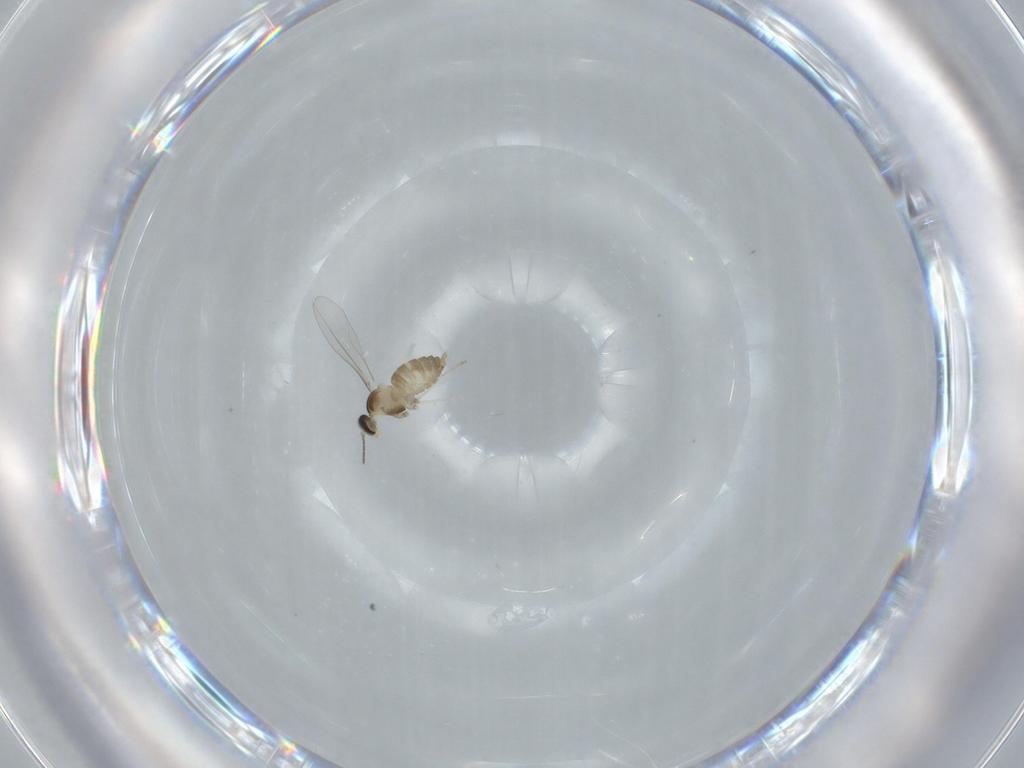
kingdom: Animalia
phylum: Arthropoda
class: Insecta
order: Diptera
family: Cecidomyiidae
